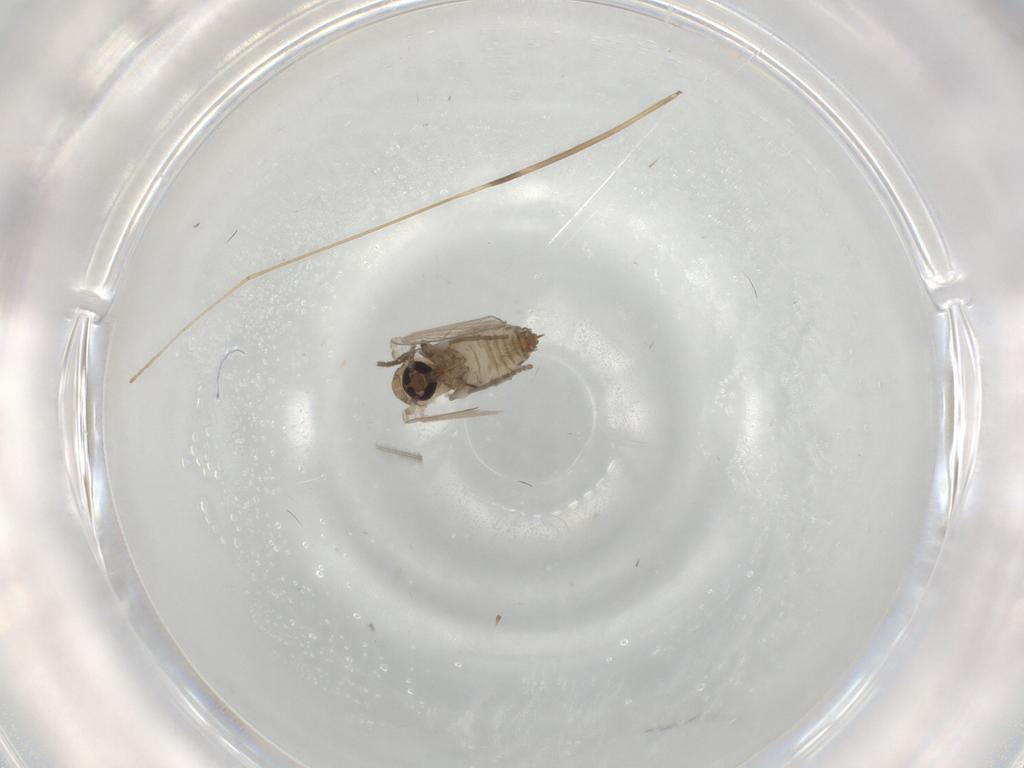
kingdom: Animalia
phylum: Arthropoda
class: Insecta
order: Diptera
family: Psychodidae
